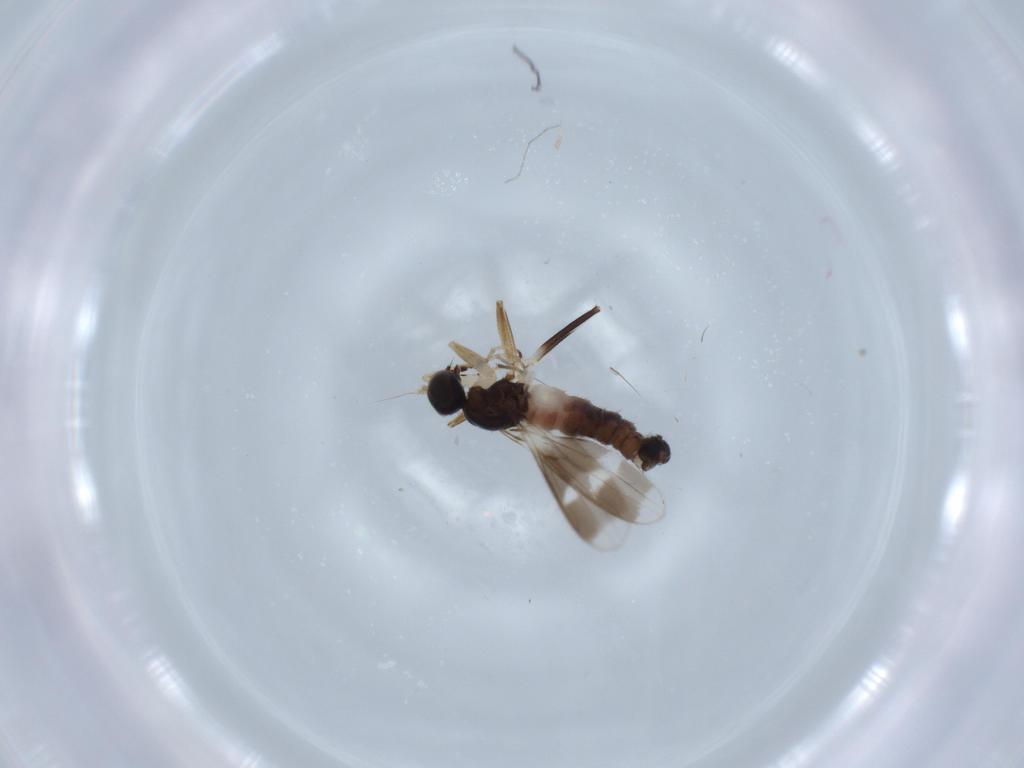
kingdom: Animalia
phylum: Arthropoda
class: Insecta
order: Diptera
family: Hybotidae
